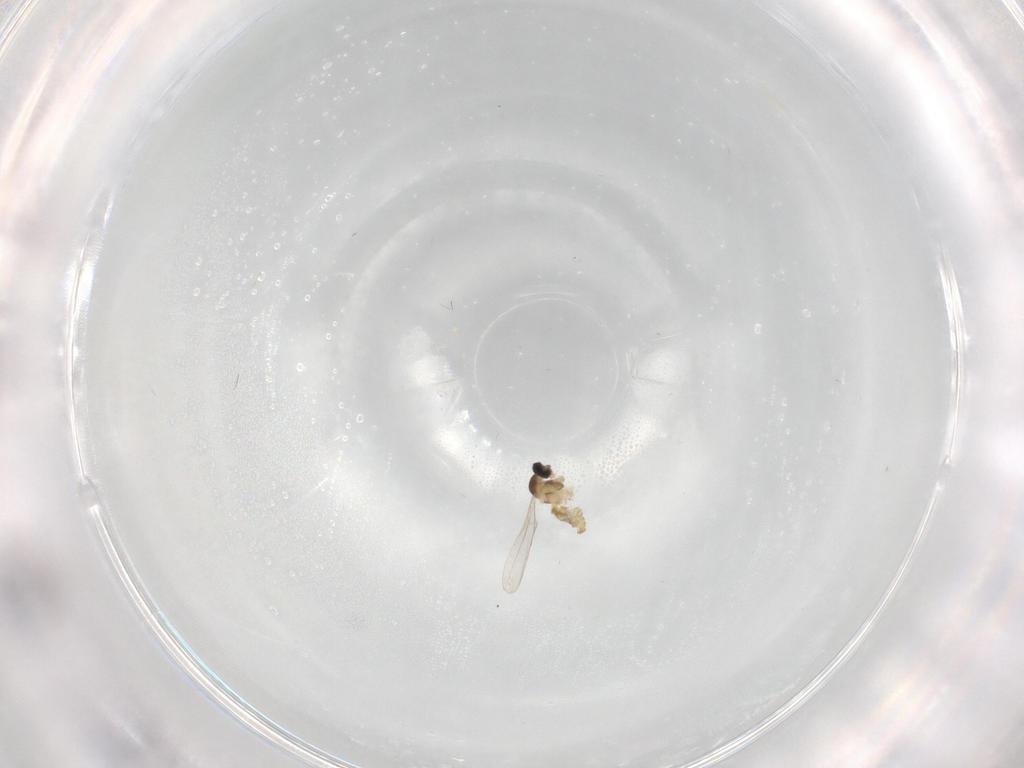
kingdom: Animalia
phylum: Arthropoda
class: Insecta
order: Diptera
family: Cecidomyiidae
